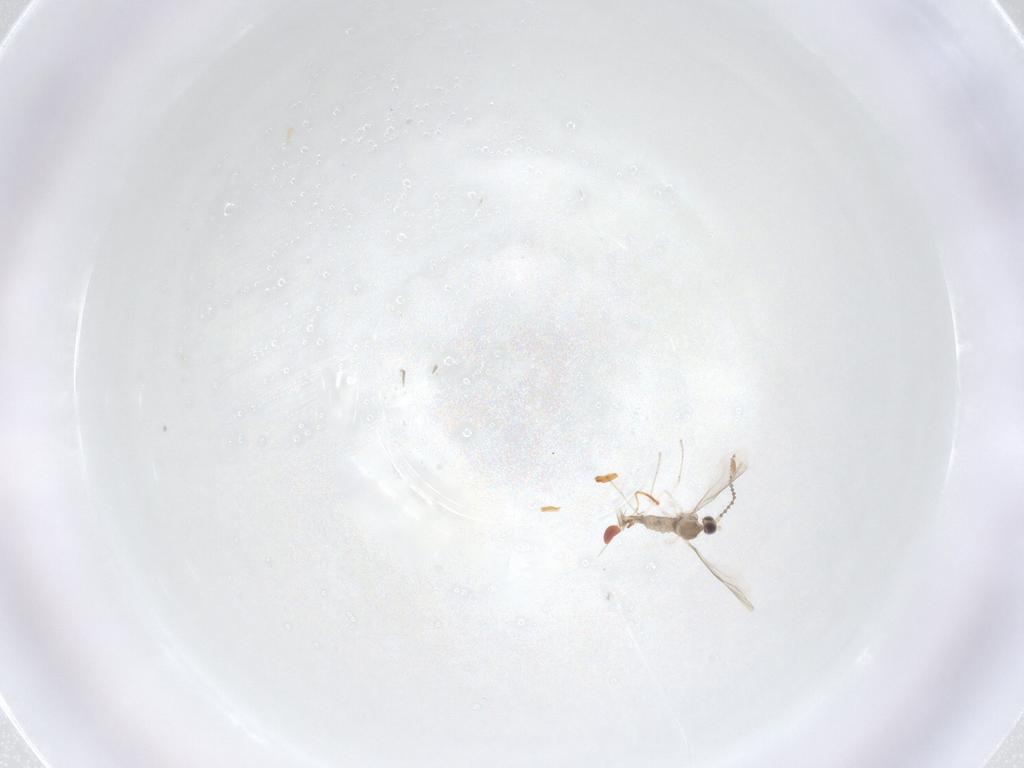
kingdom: Animalia
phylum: Arthropoda
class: Insecta
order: Diptera
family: Cecidomyiidae
